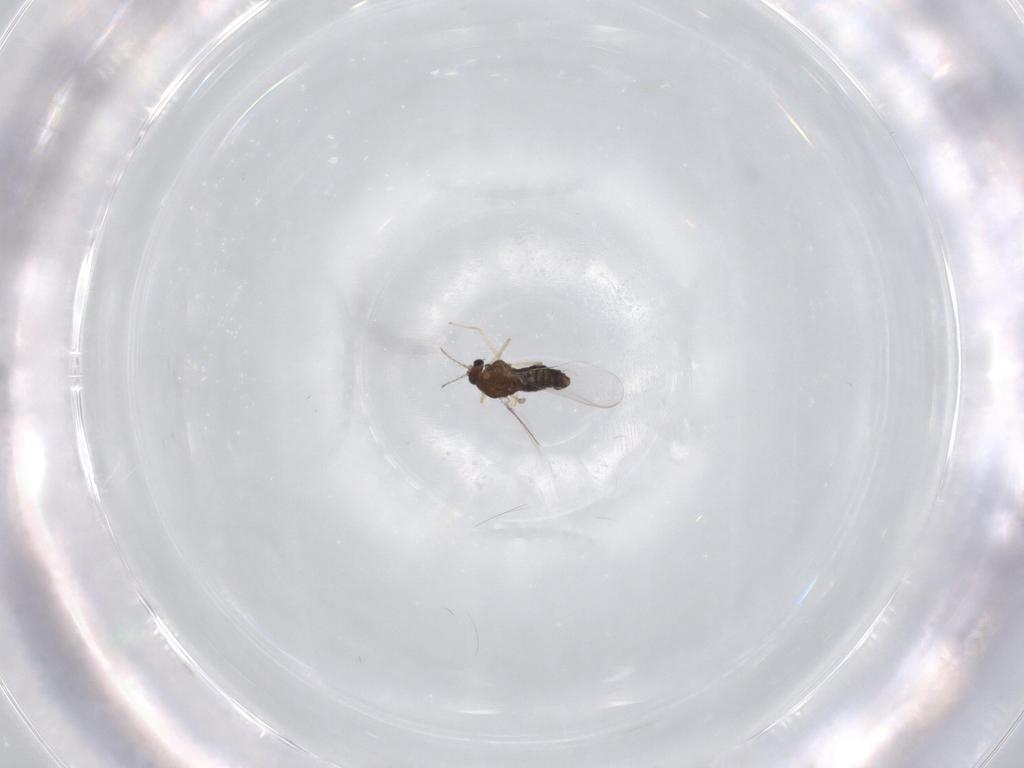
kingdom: Animalia
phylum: Arthropoda
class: Insecta
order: Diptera
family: Chironomidae
